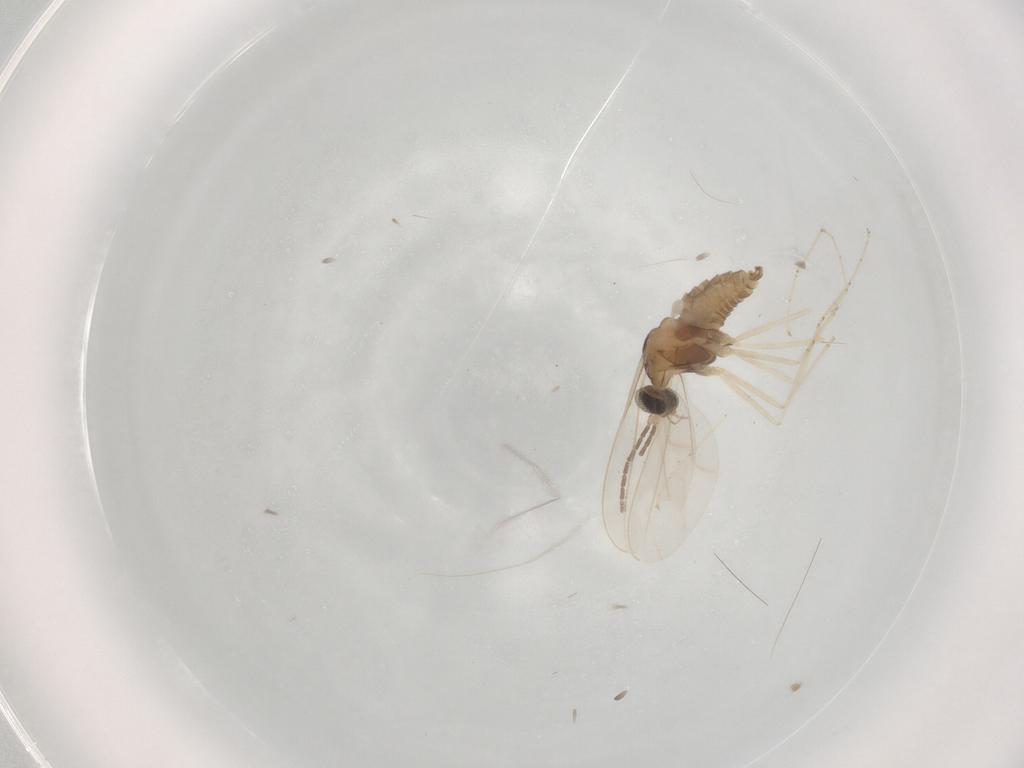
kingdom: Animalia
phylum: Arthropoda
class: Insecta
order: Diptera
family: Cecidomyiidae
